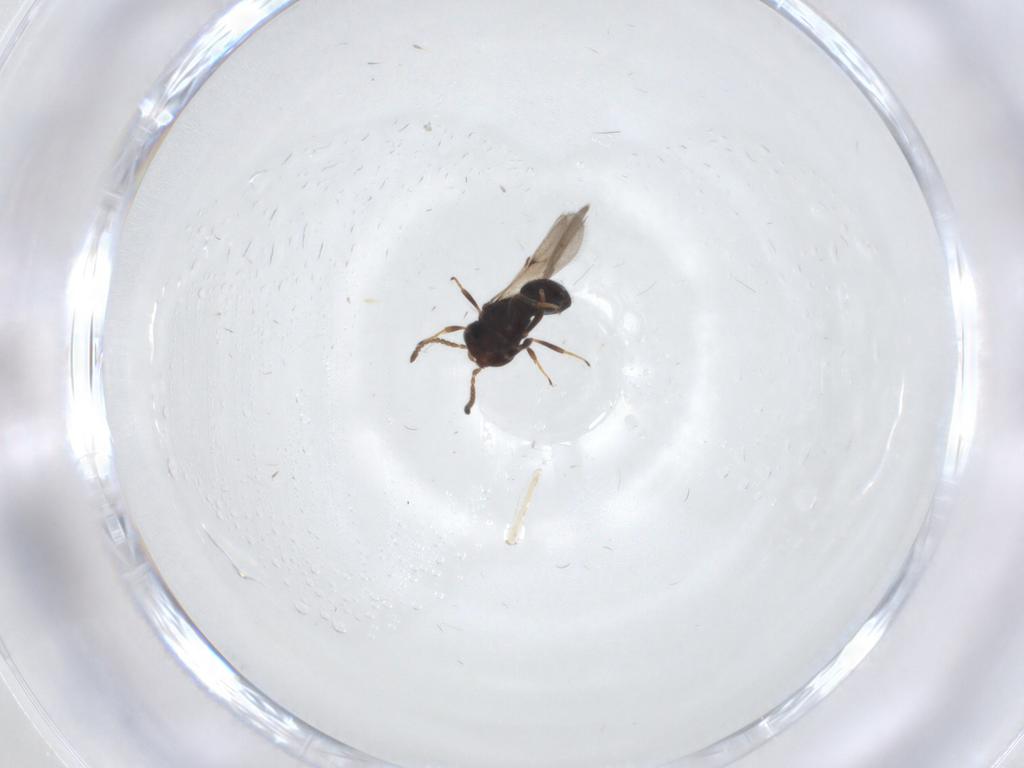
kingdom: Animalia
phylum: Arthropoda
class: Insecta
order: Hymenoptera
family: Scelionidae
